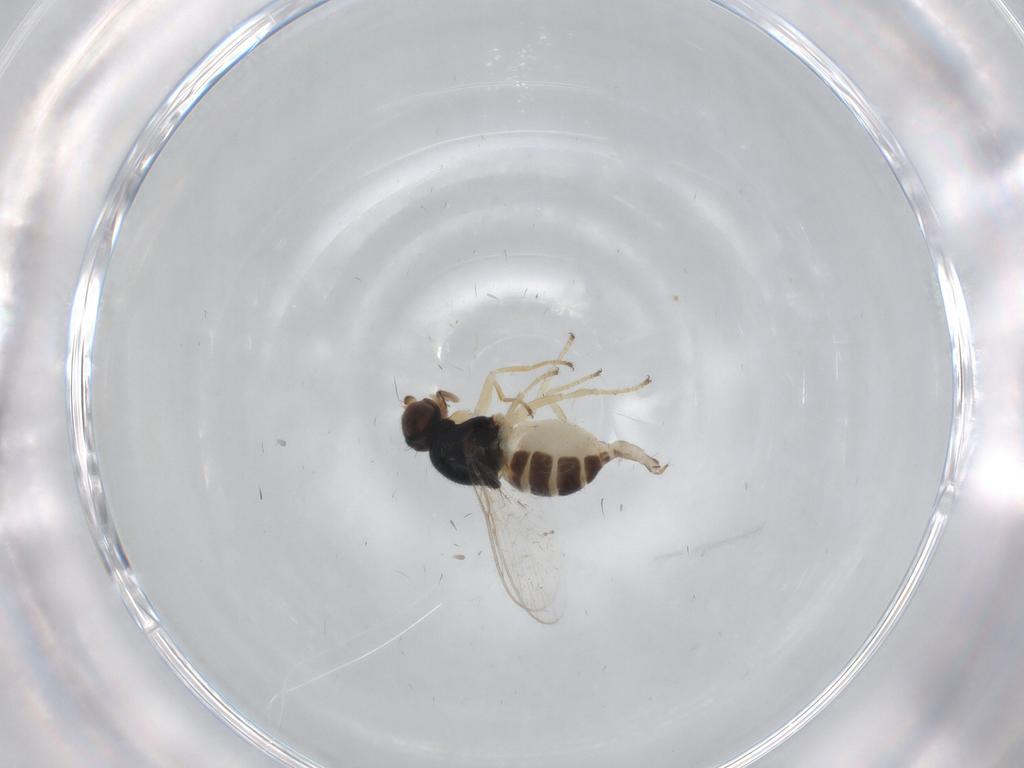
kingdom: Animalia
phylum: Arthropoda
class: Insecta
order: Diptera
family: Chloropidae
